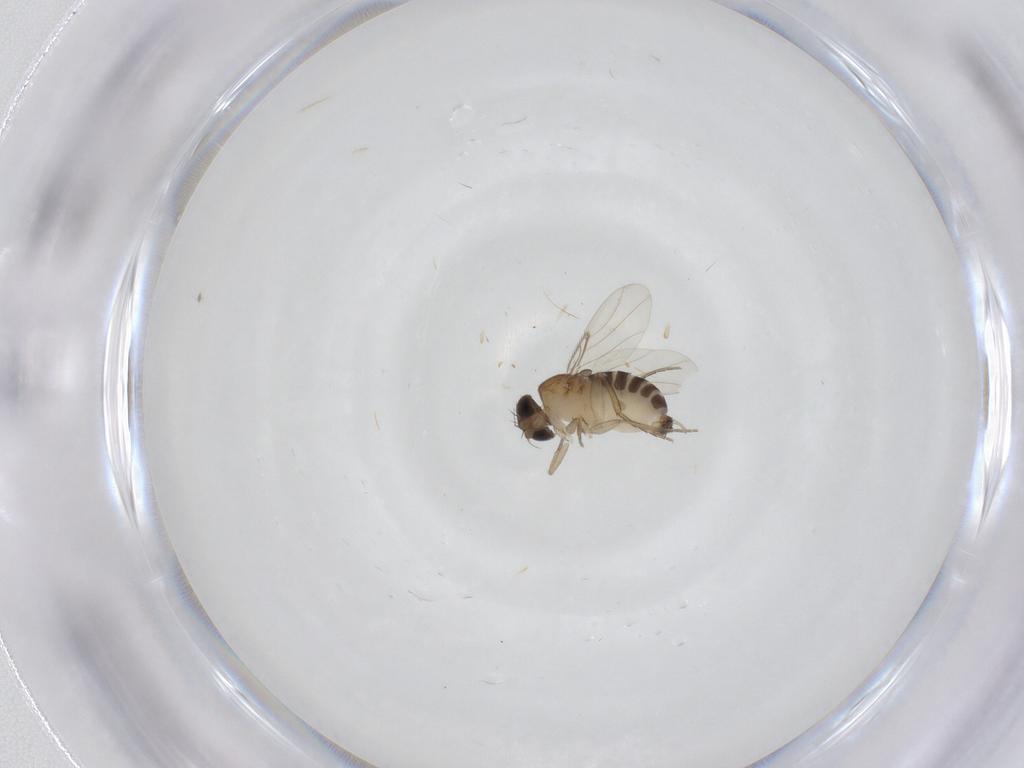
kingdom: Animalia
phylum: Arthropoda
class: Insecta
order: Diptera
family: Phoridae
